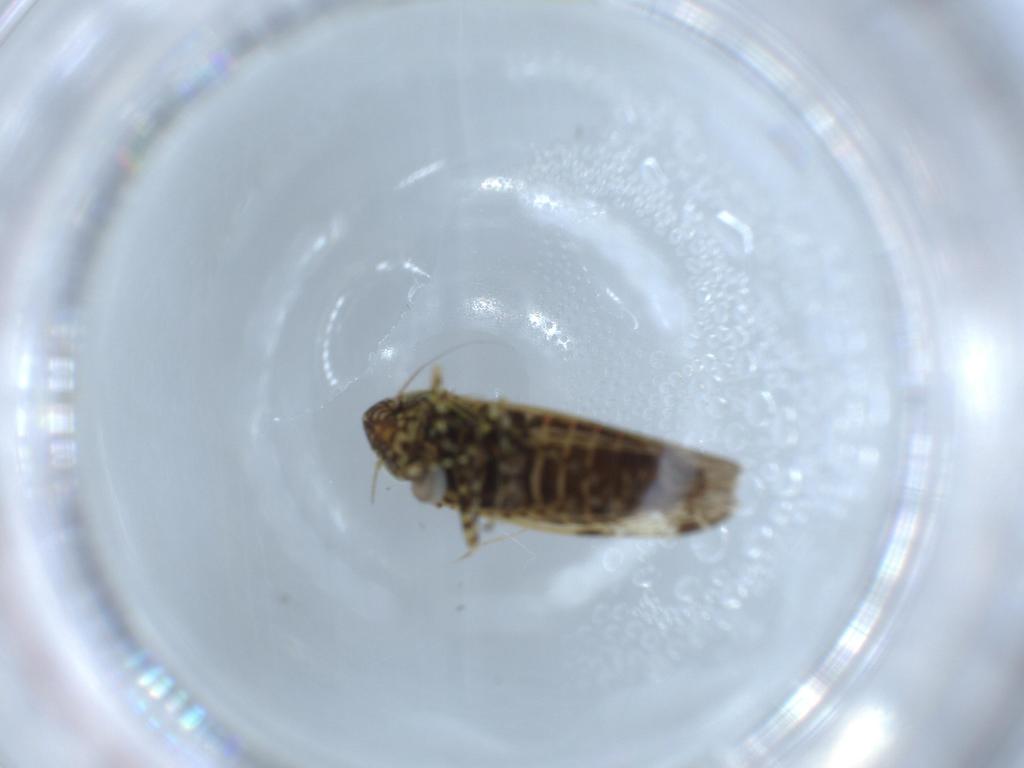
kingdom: Animalia
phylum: Arthropoda
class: Insecta
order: Hemiptera
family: Cicadellidae
